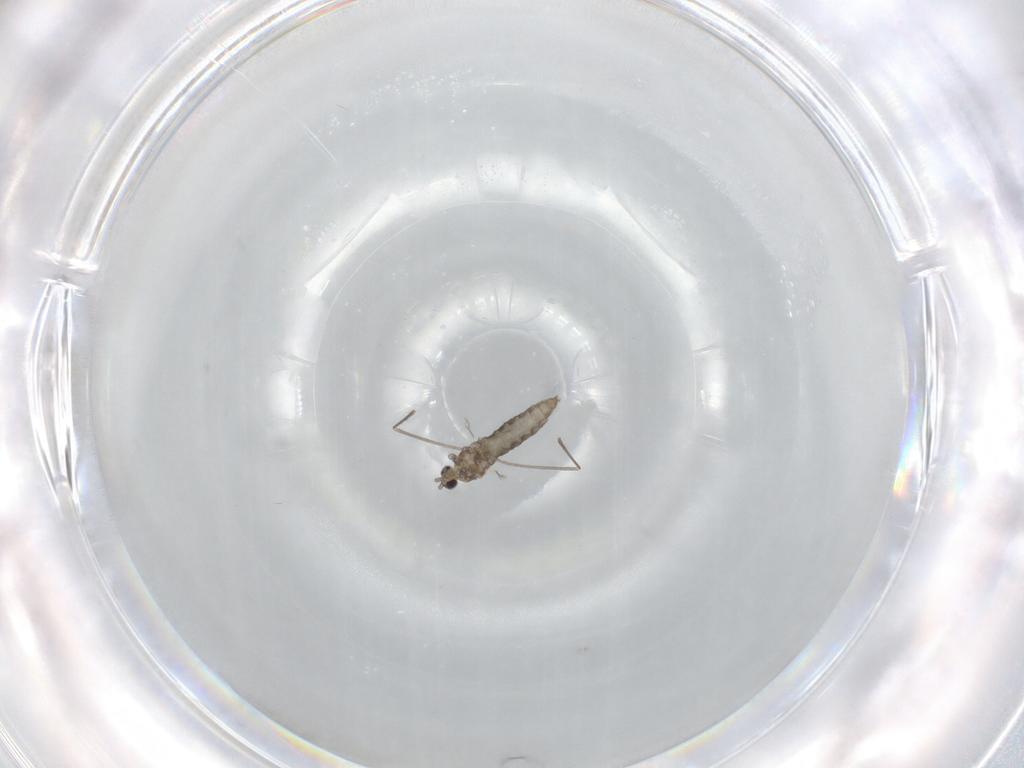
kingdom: Animalia
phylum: Arthropoda
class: Insecta
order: Diptera
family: Cecidomyiidae
